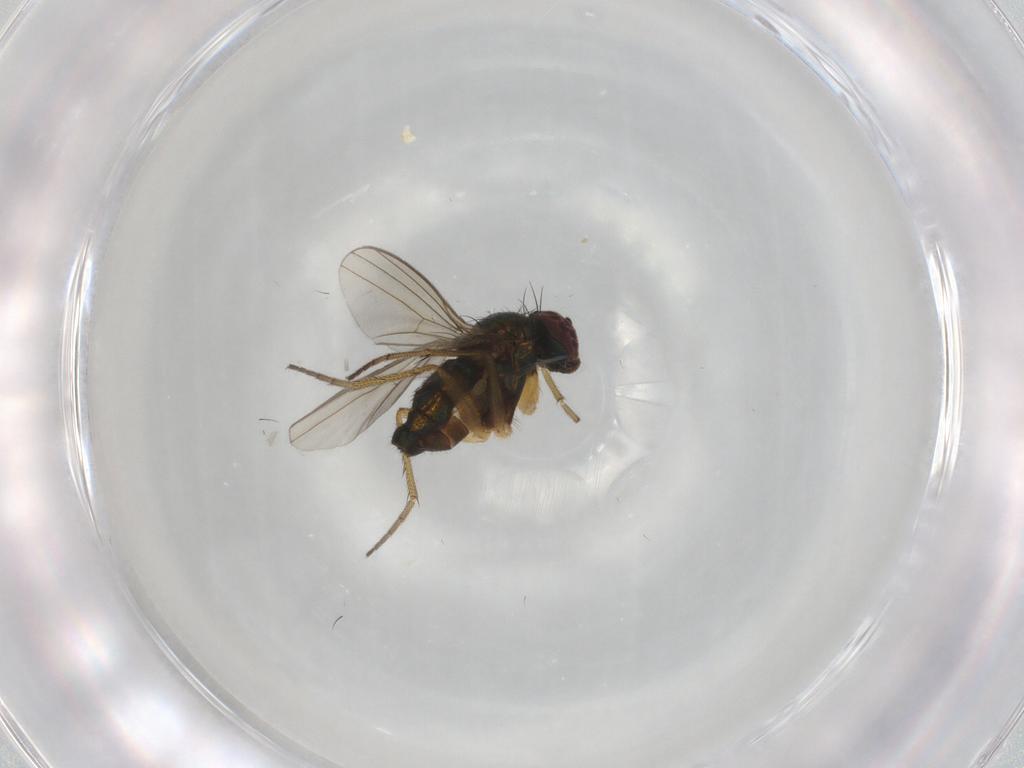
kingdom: Animalia
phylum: Arthropoda
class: Insecta
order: Diptera
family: Dolichopodidae
